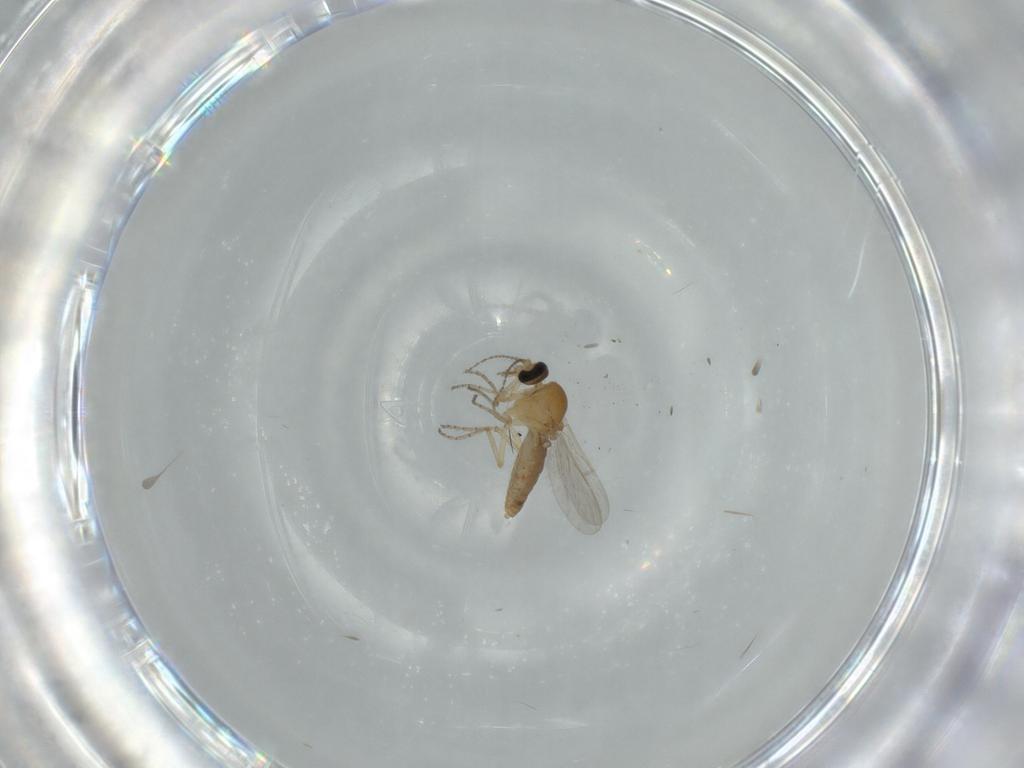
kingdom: Animalia
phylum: Arthropoda
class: Insecta
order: Diptera
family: Ceratopogonidae
